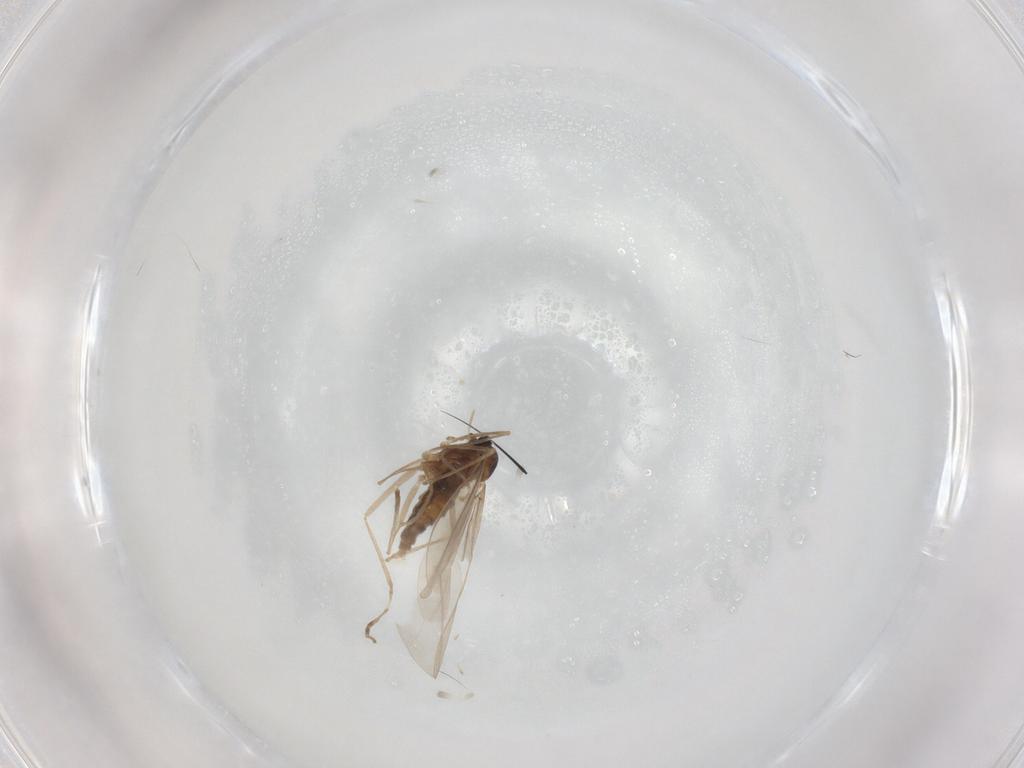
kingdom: Animalia
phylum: Arthropoda
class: Insecta
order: Diptera
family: Cecidomyiidae
